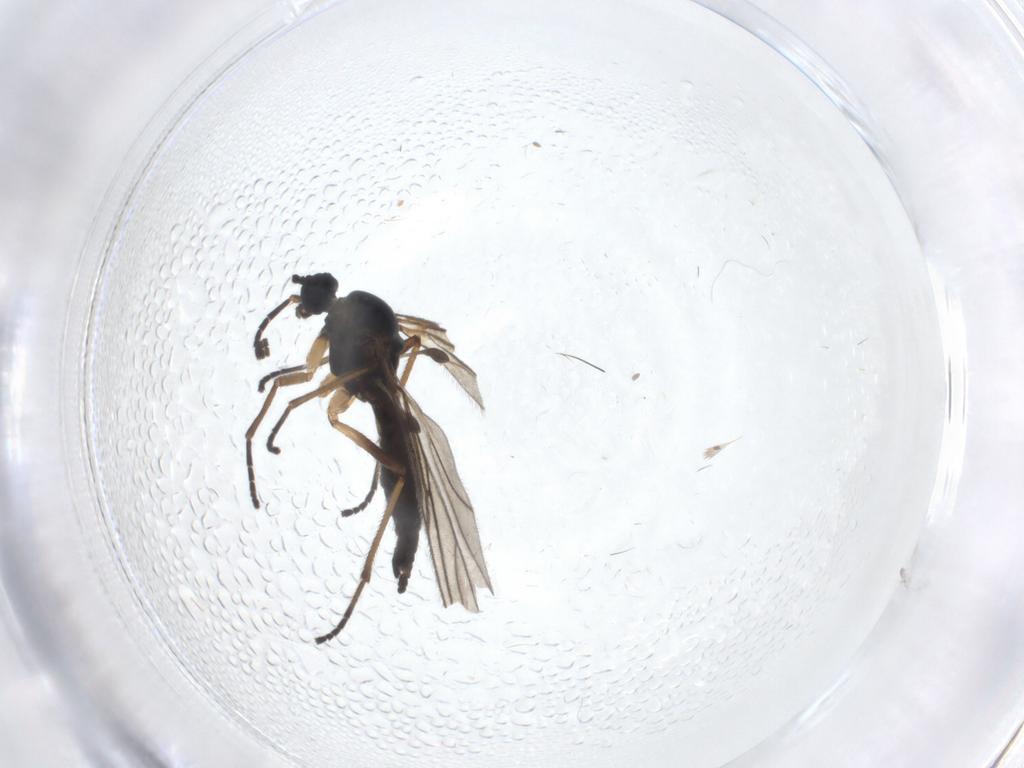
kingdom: Animalia
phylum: Arthropoda
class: Insecta
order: Diptera
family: Sciaridae
